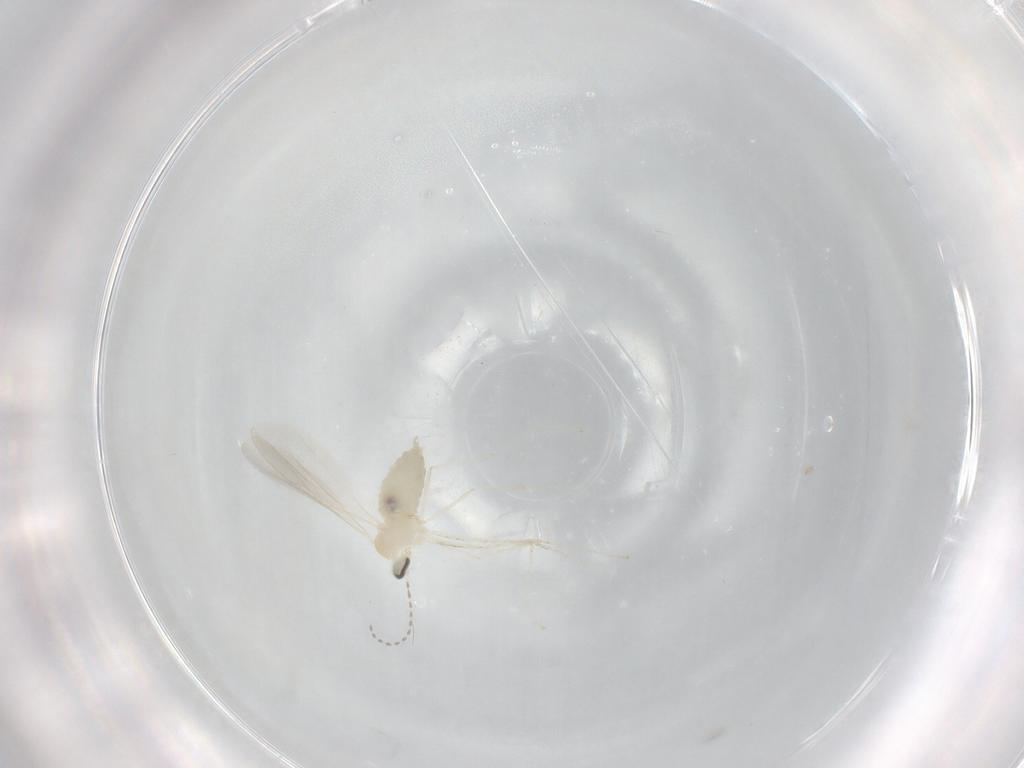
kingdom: Animalia
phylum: Arthropoda
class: Insecta
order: Diptera
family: Cecidomyiidae
